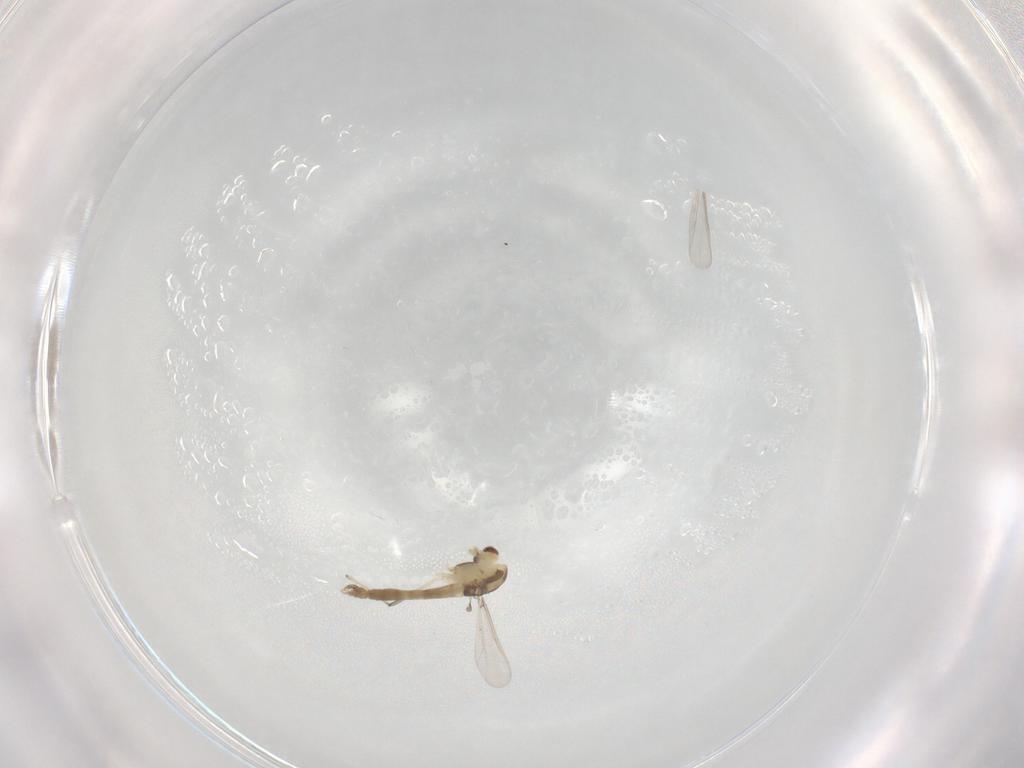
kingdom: Animalia
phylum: Arthropoda
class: Insecta
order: Diptera
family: Chironomidae
